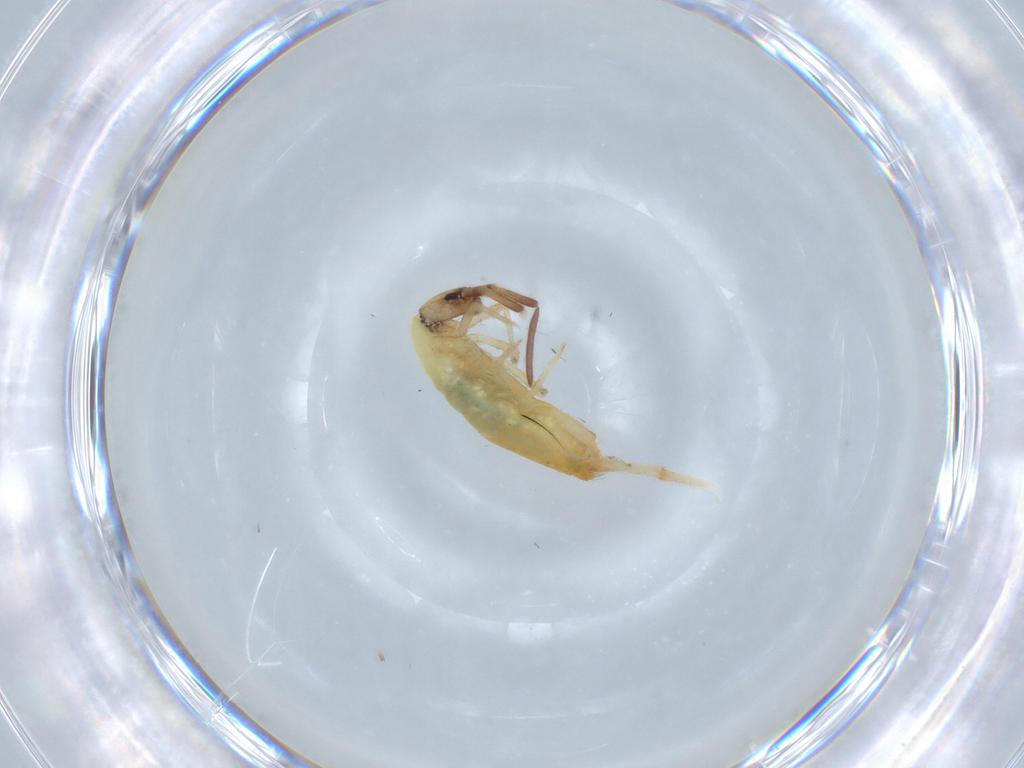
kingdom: Animalia
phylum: Arthropoda
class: Collembola
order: Entomobryomorpha
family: Entomobryidae
